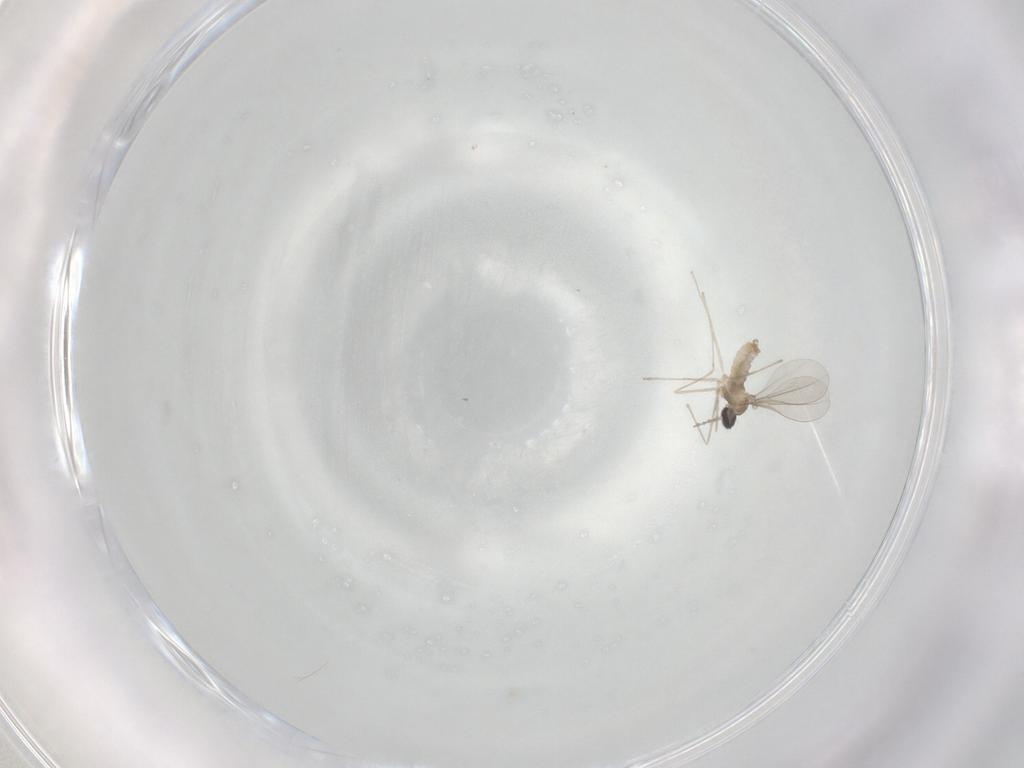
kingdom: Animalia
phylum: Arthropoda
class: Insecta
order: Diptera
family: Cecidomyiidae
